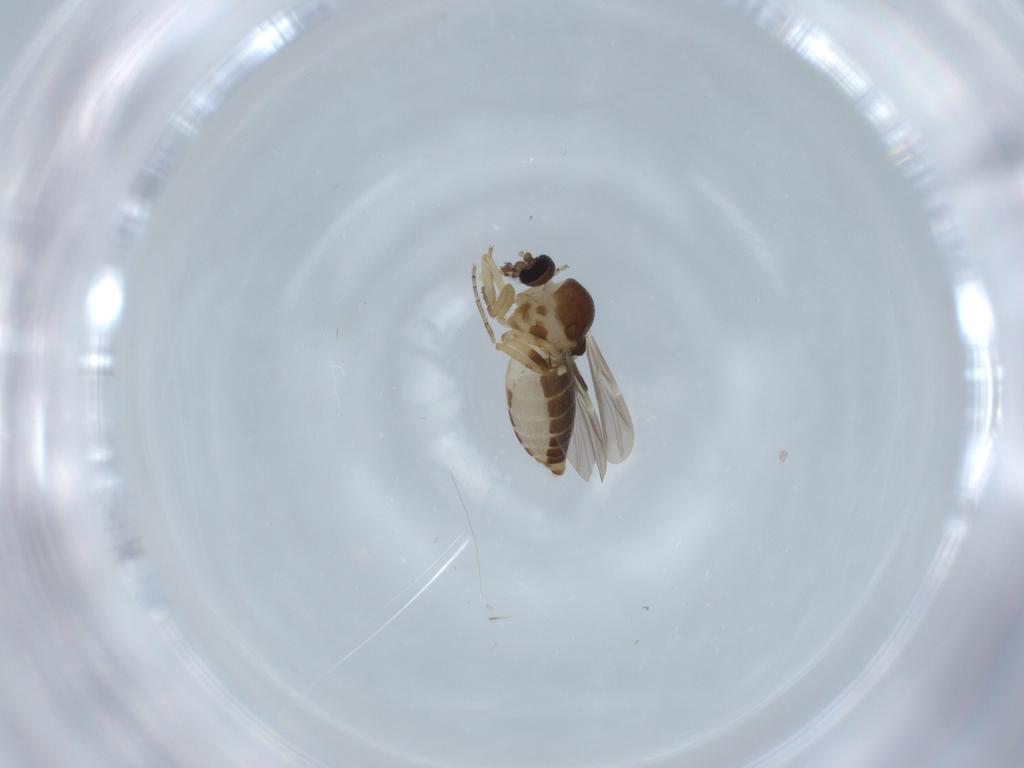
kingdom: Animalia
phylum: Arthropoda
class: Insecta
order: Diptera
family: Ceratopogonidae
